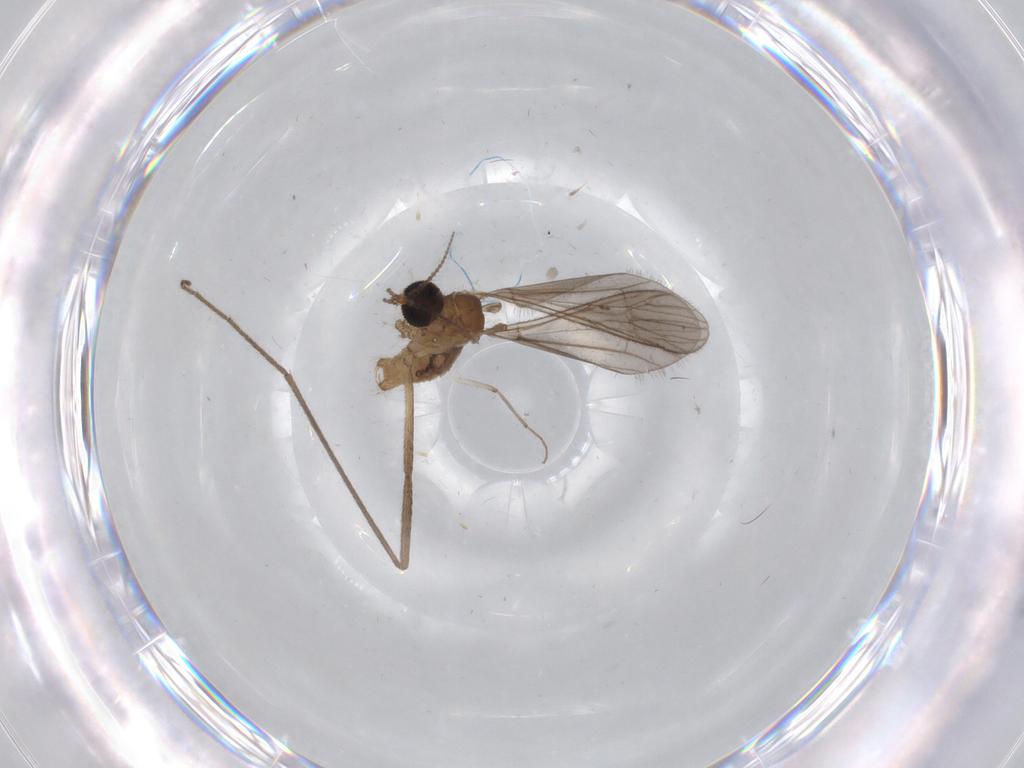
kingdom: Animalia
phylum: Arthropoda
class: Insecta
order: Diptera
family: Limoniidae
